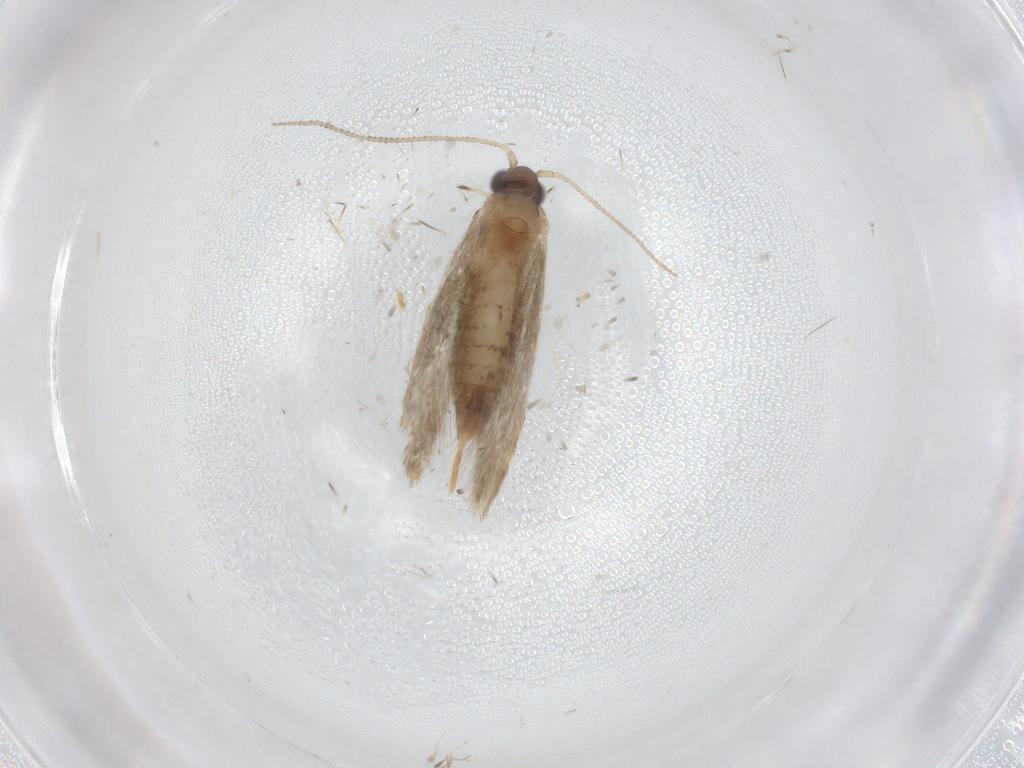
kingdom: Animalia
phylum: Arthropoda
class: Insecta
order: Lepidoptera
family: Tineidae
